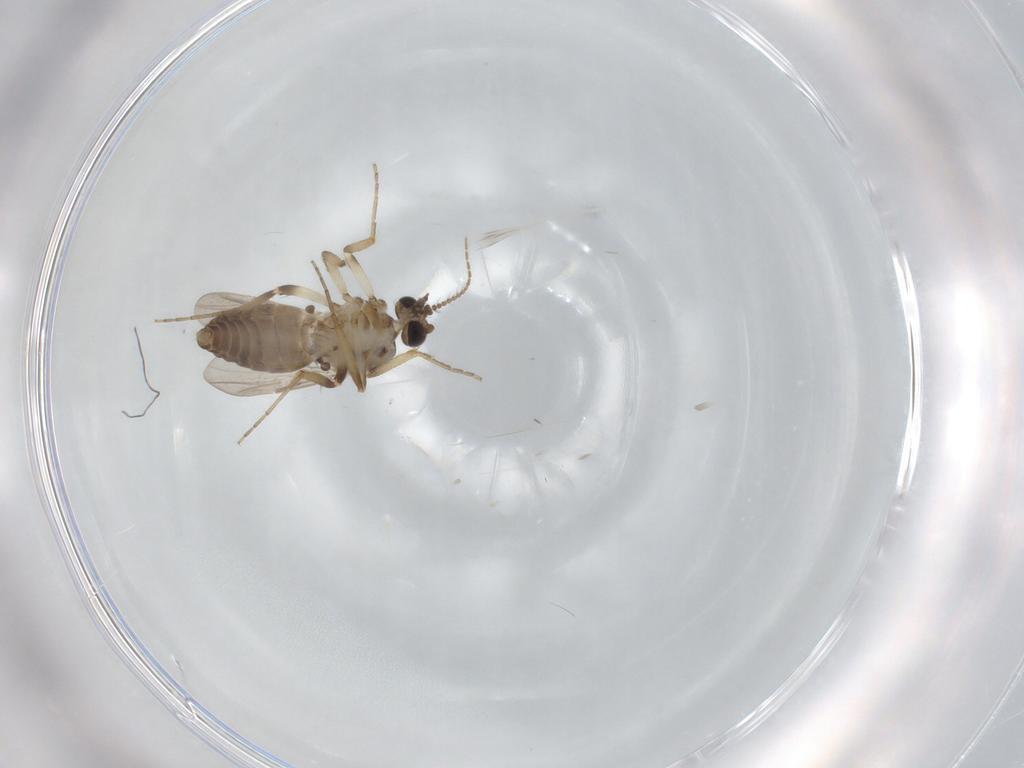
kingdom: Animalia
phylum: Arthropoda
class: Insecta
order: Diptera
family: Ceratopogonidae
